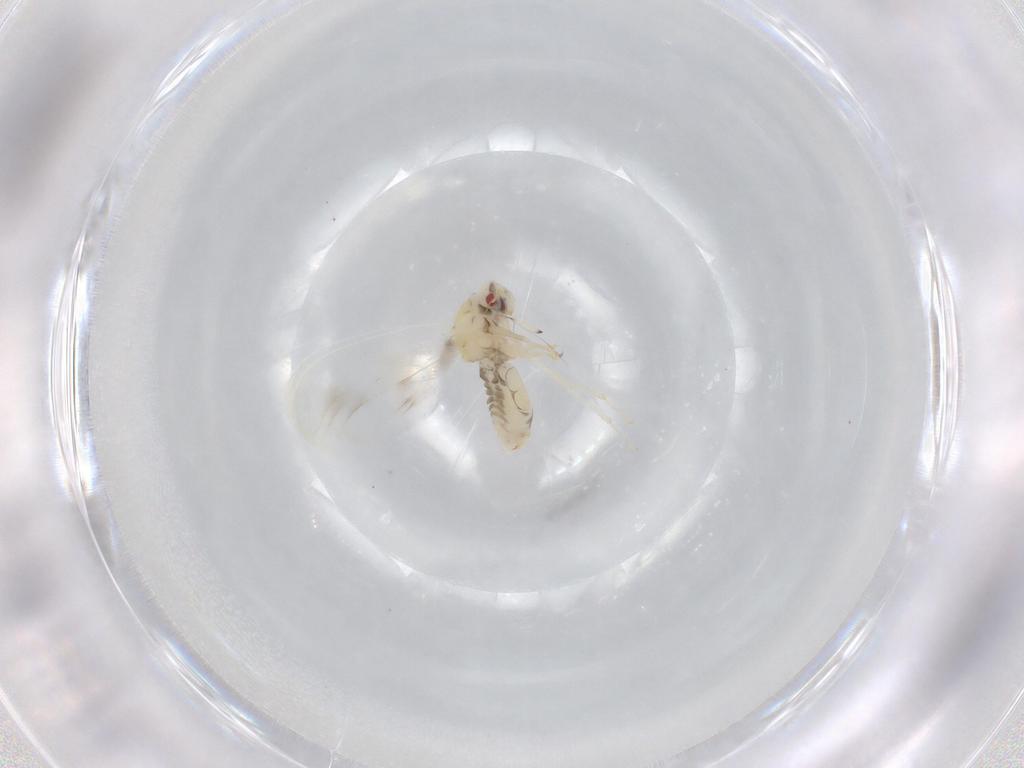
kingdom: Animalia
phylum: Arthropoda
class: Insecta
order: Hemiptera
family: Aleyrodidae
